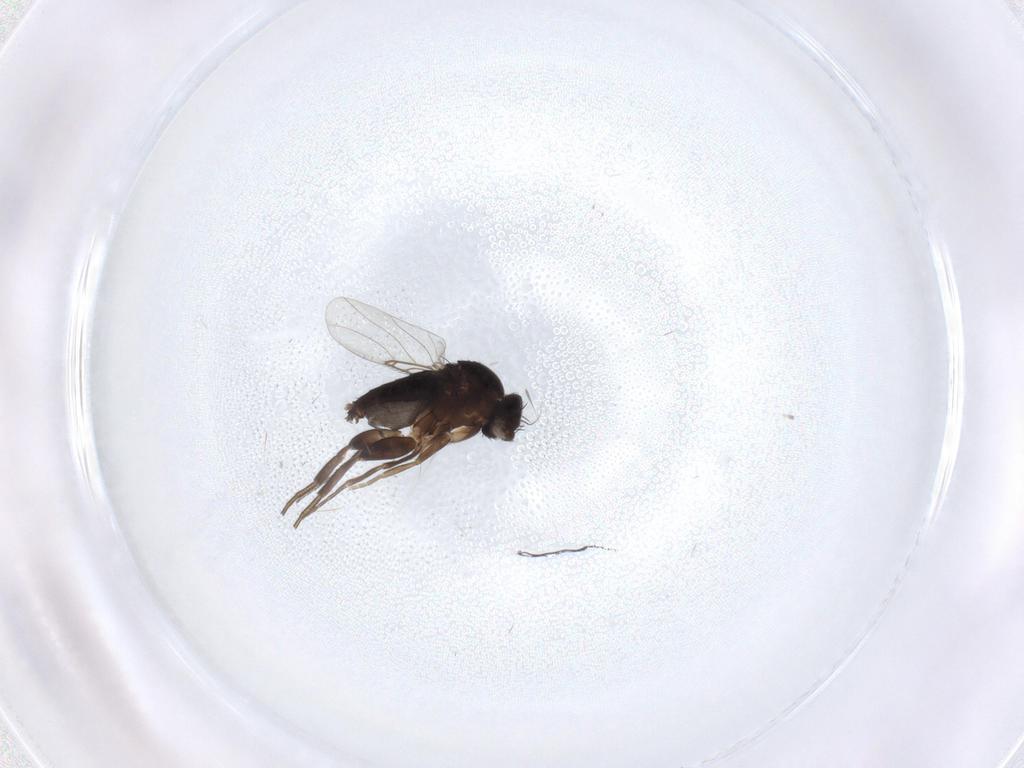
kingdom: Animalia
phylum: Arthropoda
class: Insecta
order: Diptera
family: Phoridae
